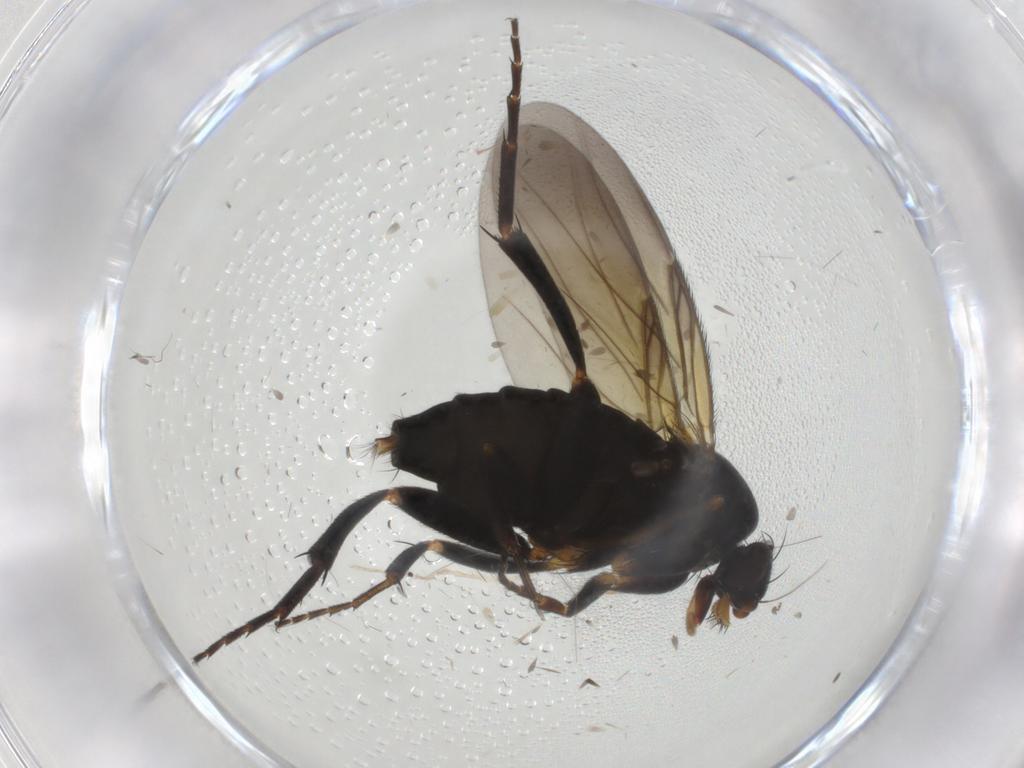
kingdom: Animalia
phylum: Arthropoda
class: Insecta
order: Diptera
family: Phoridae
